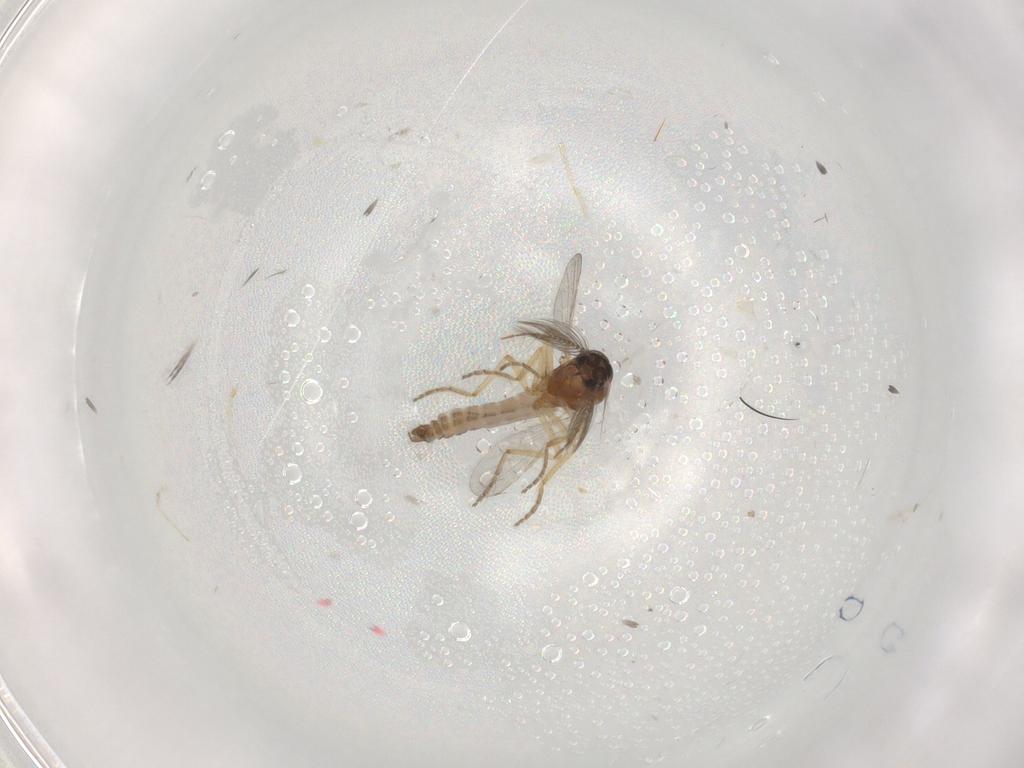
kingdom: Animalia
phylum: Arthropoda
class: Insecta
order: Diptera
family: Ceratopogonidae
